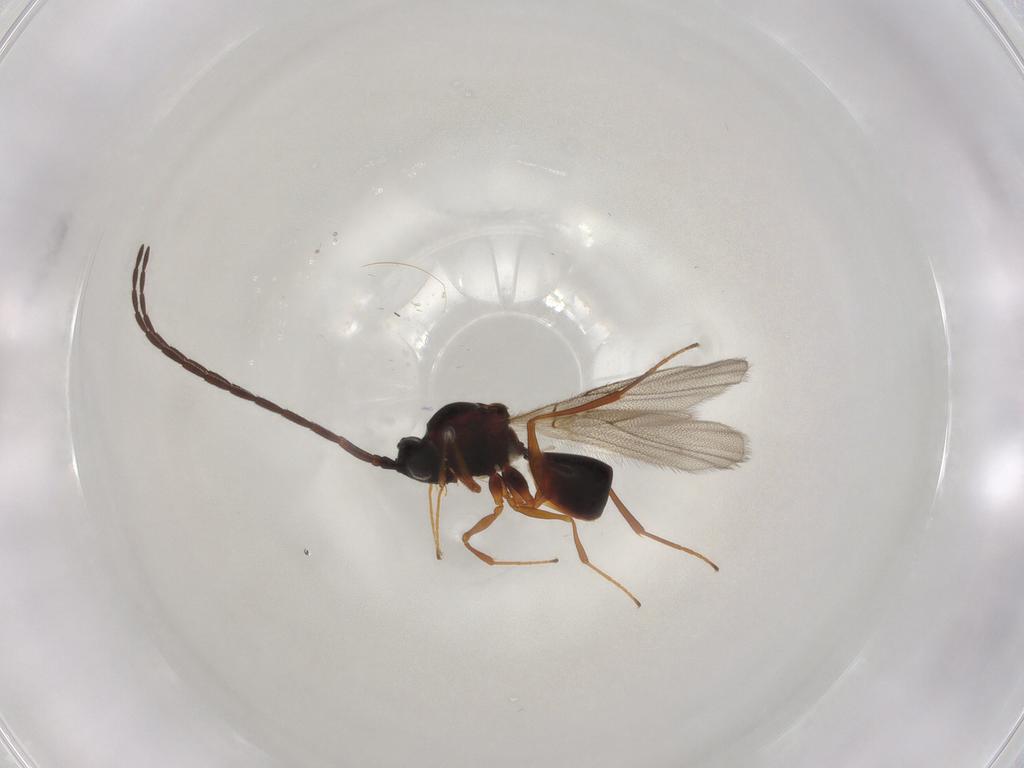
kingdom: Animalia
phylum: Arthropoda
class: Insecta
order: Hymenoptera
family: Figitidae
